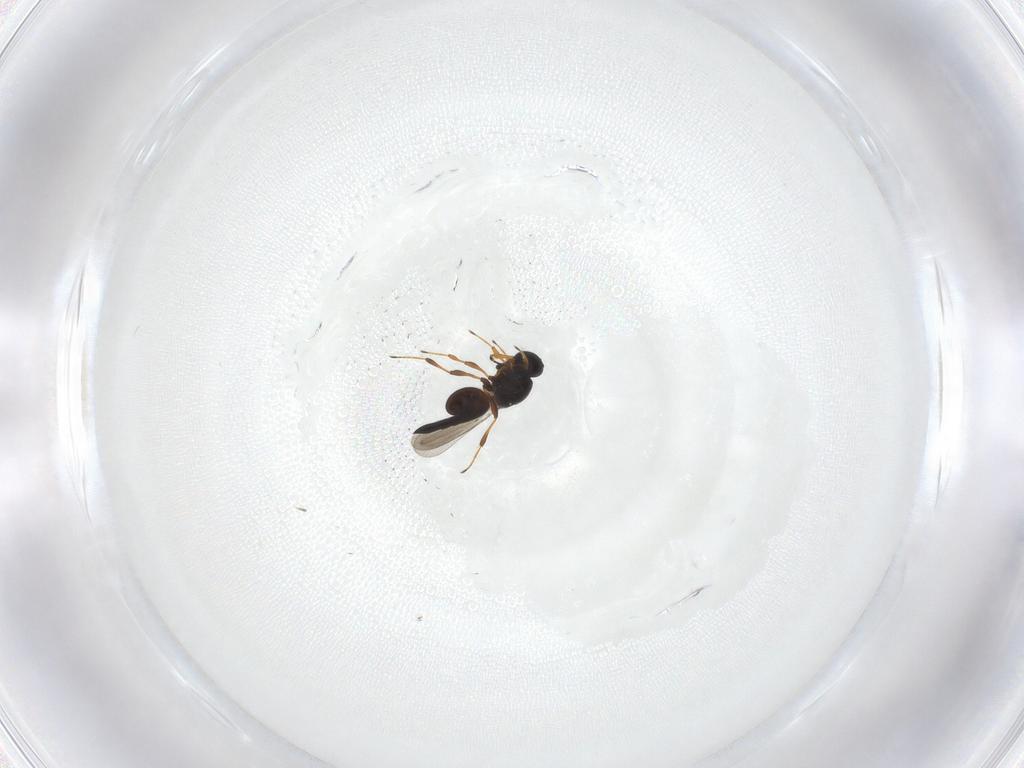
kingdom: Animalia
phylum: Arthropoda
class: Insecta
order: Hymenoptera
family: Platygastridae
